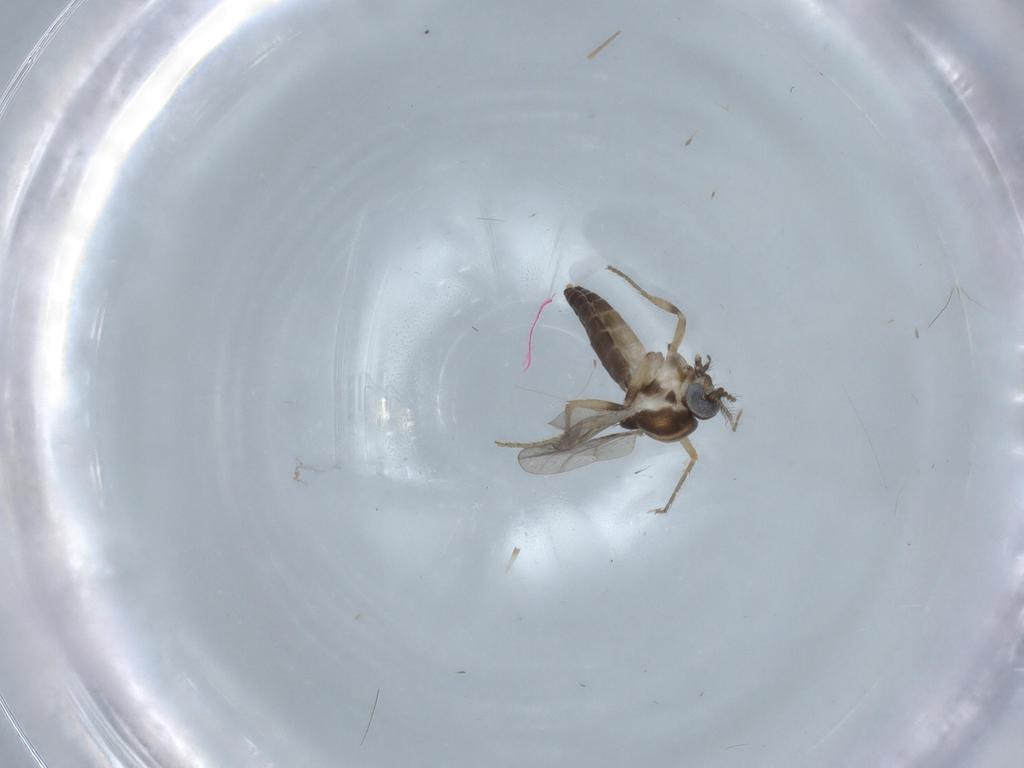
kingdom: Animalia
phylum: Arthropoda
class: Insecta
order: Diptera
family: Ceratopogonidae
